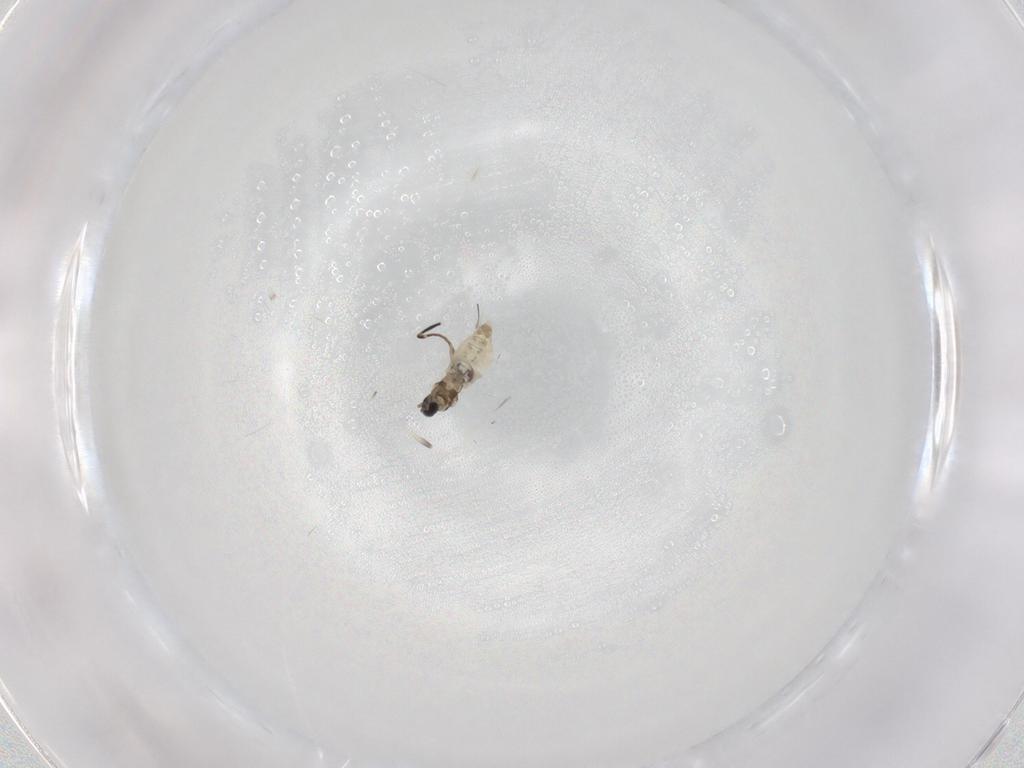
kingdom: Animalia
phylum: Arthropoda
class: Insecta
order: Diptera
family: Cecidomyiidae
